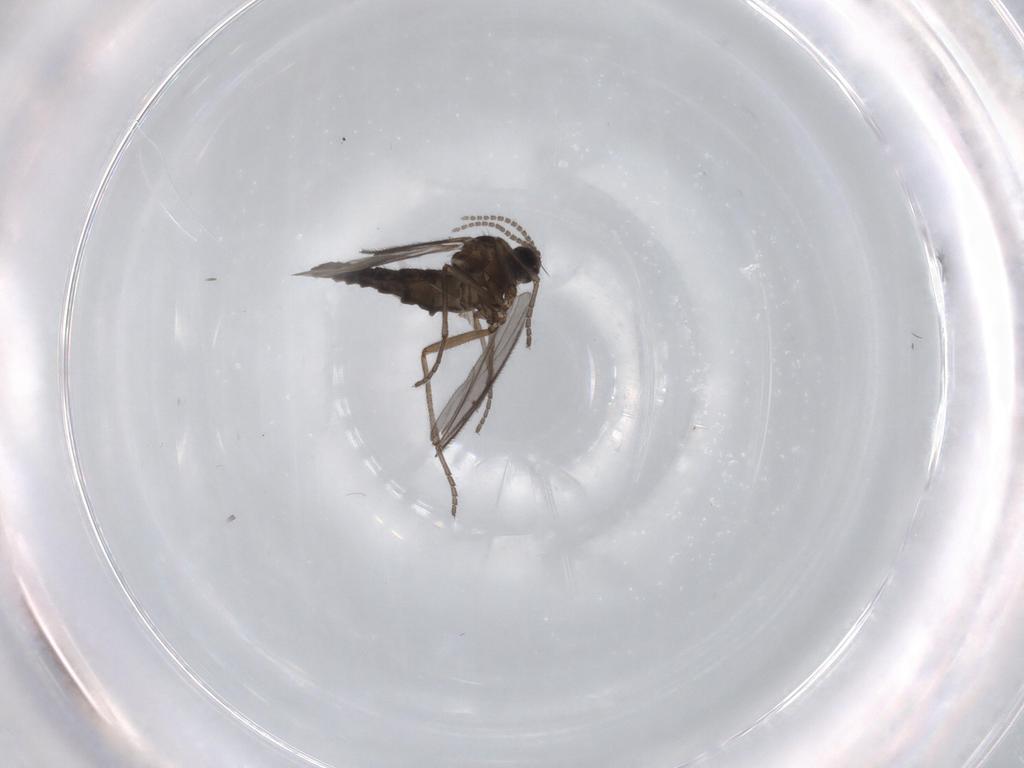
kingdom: Animalia
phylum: Arthropoda
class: Insecta
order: Diptera
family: Sciaridae
